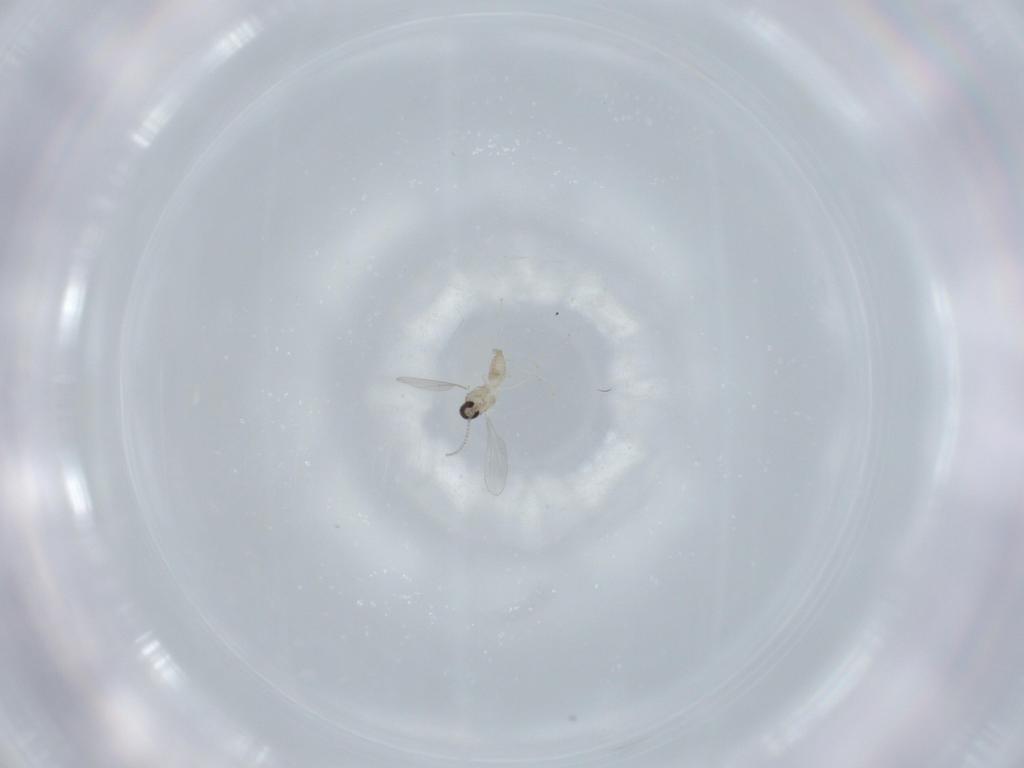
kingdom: Animalia
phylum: Arthropoda
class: Insecta
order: Diptera
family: Cecidomyiidae
